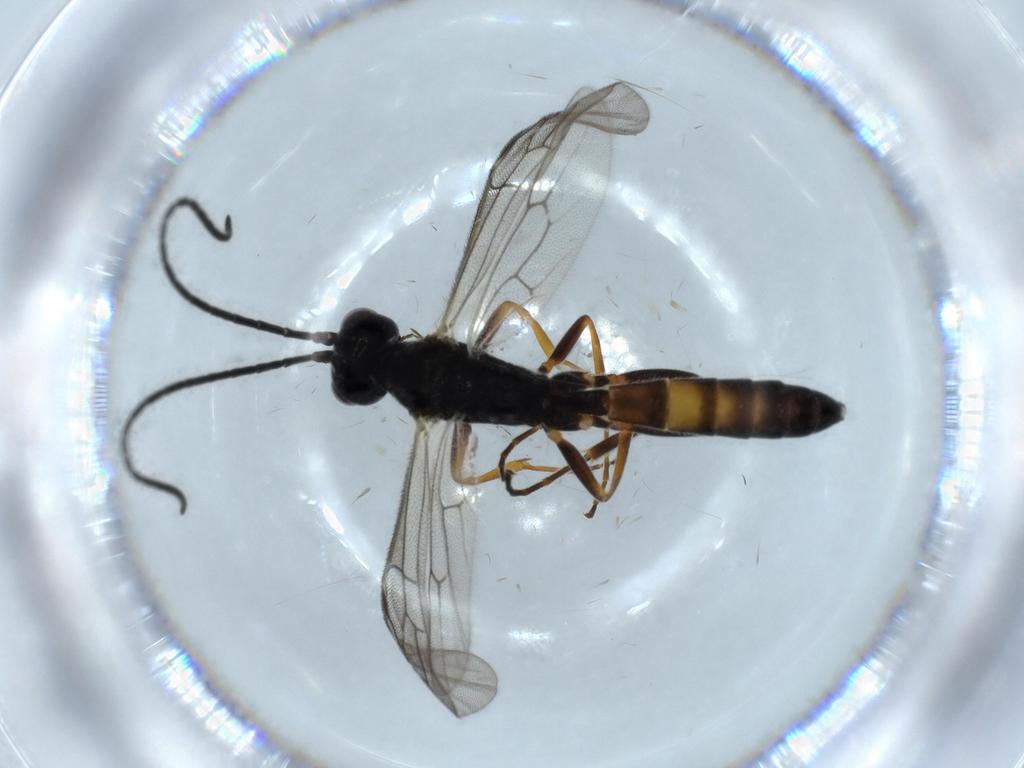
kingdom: Animalia
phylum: Arthropoda
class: Insecta
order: Hymenoptera
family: Ichneumonidae
